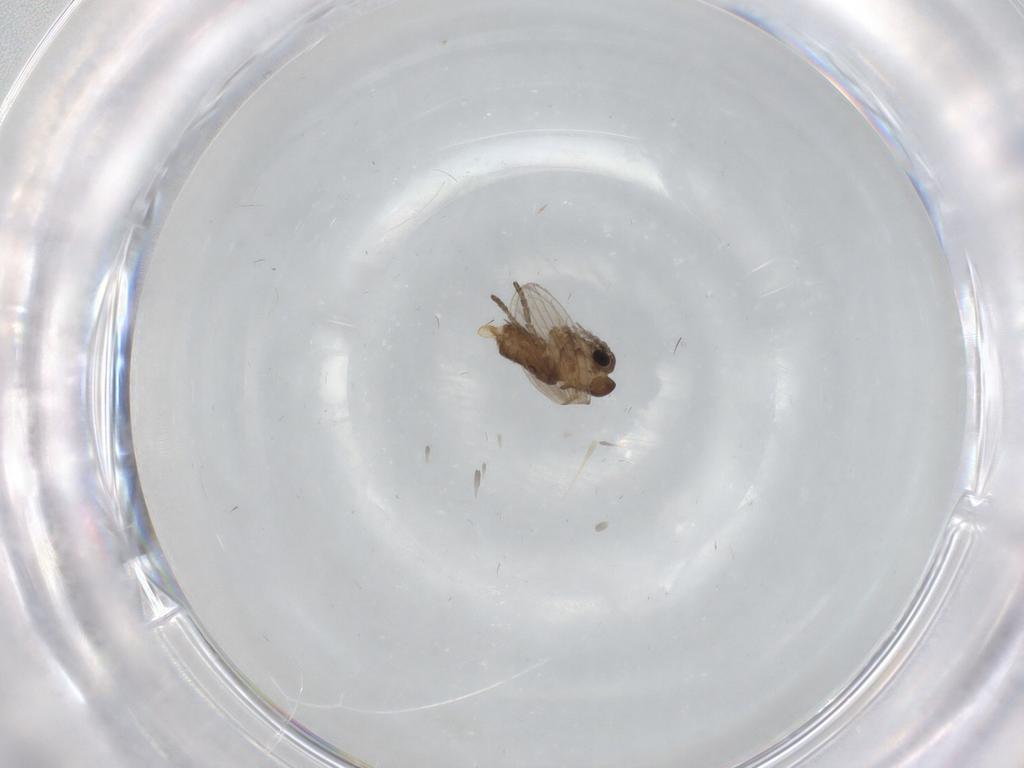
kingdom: Animalia
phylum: Arthropoda
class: Insecta
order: Diptera
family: Psychodidae
